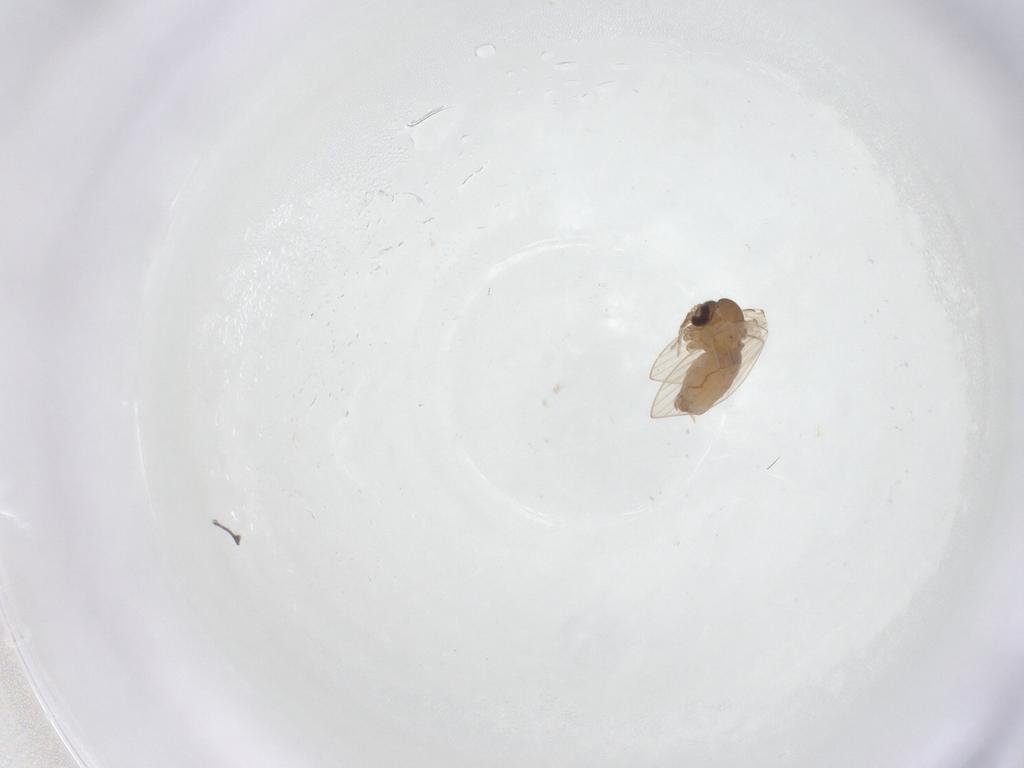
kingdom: Animalia
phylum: Arthropoda
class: Insecta
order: Diptera
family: Psychodidae
